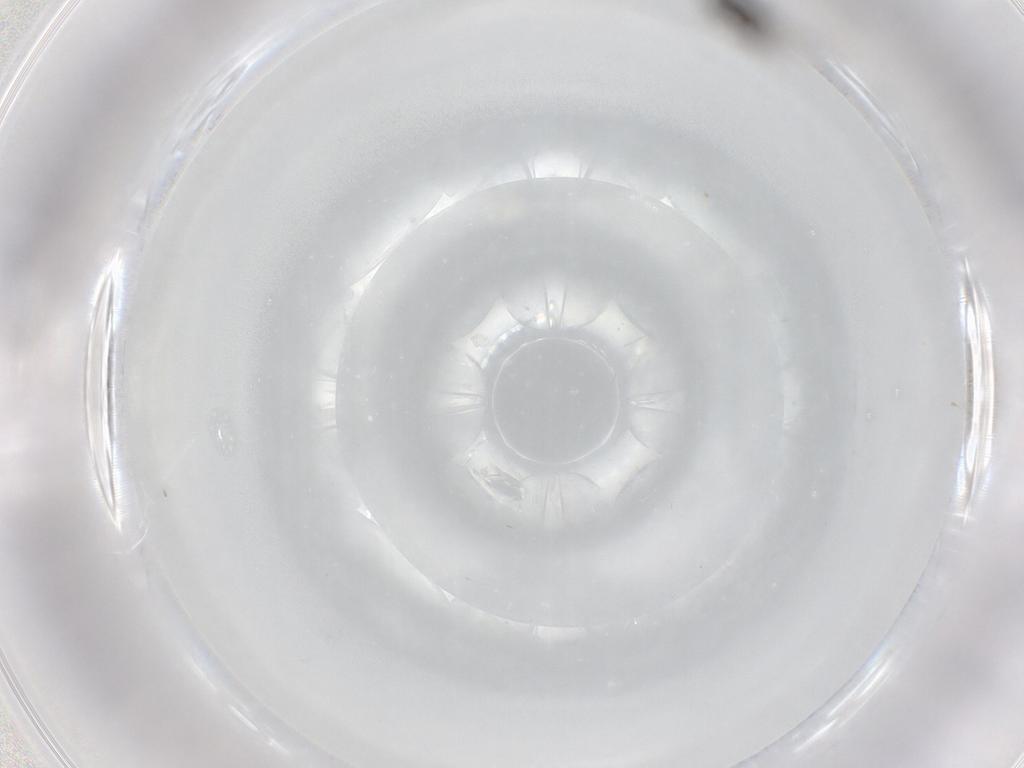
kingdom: Animalia
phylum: Arthropoda
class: Insecta
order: Diptera
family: Chironomidae
